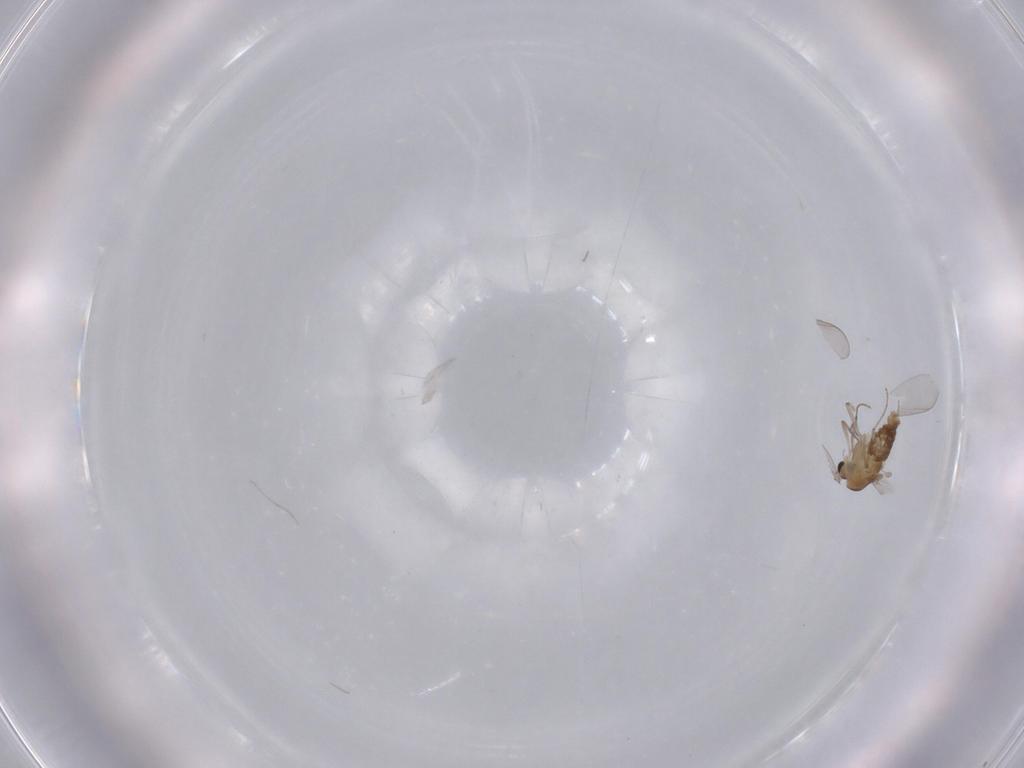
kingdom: Animalia
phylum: Arthropoda
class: Insecta
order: Diptera
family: Chironomidae
